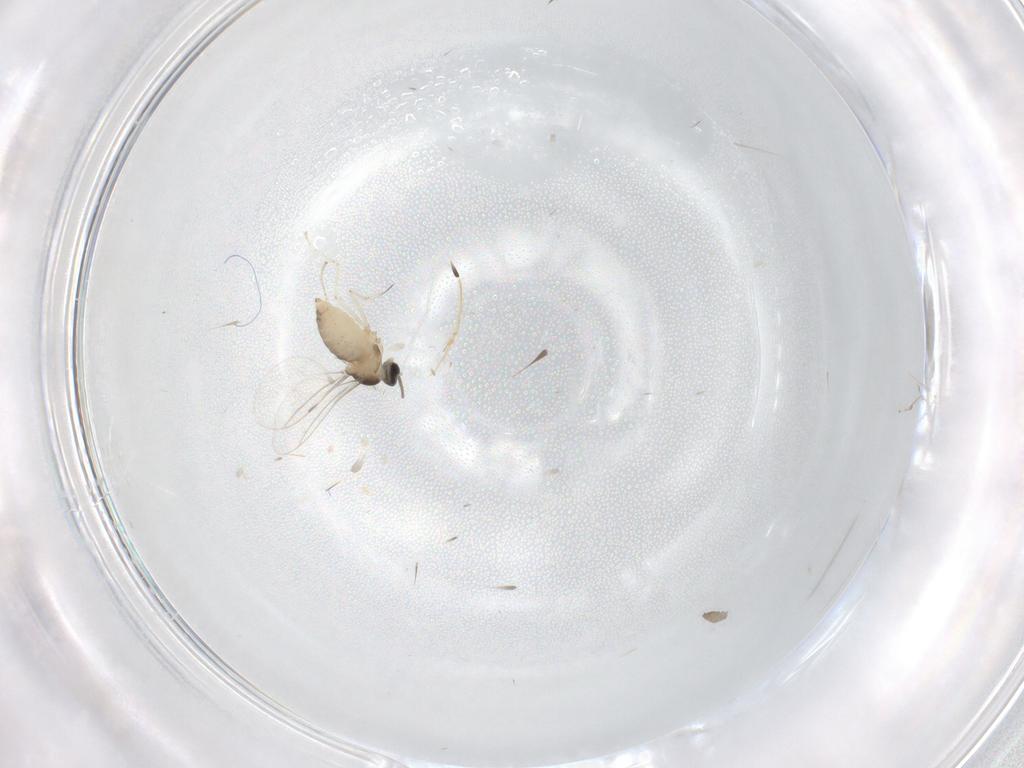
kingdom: Animalia
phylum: Arthropoda
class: Insecta
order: Diptera
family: Cecidomyiidae
